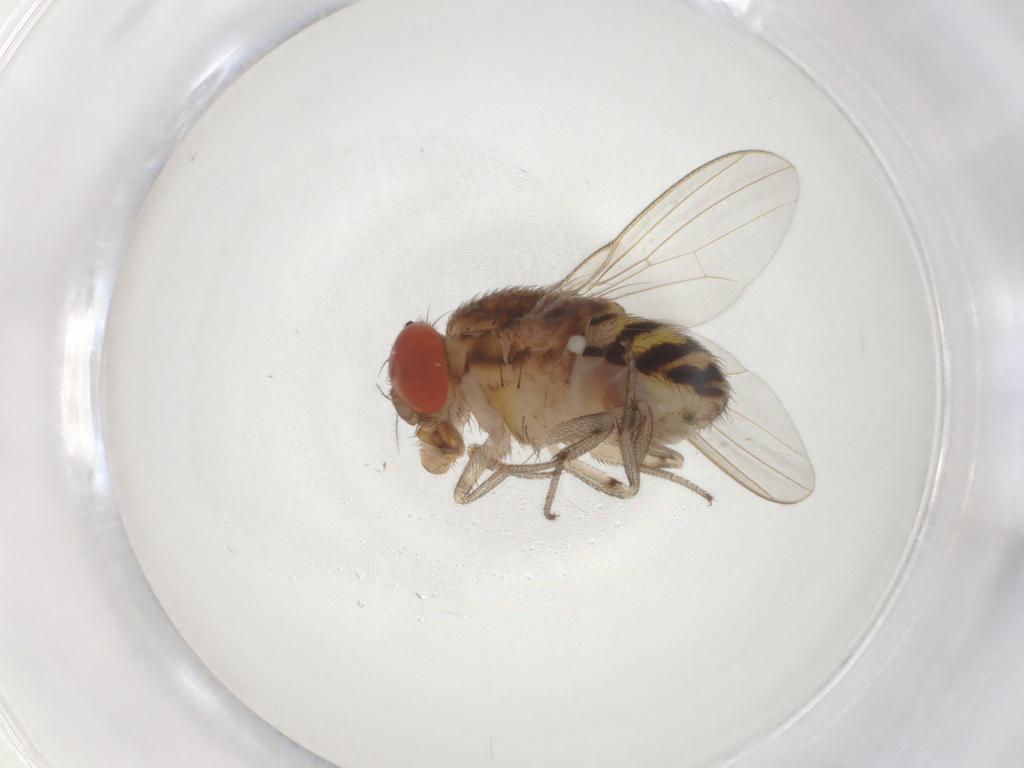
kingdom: Animalia
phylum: Arthropoda
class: Insecta
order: Diptera
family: Drosophilidae
